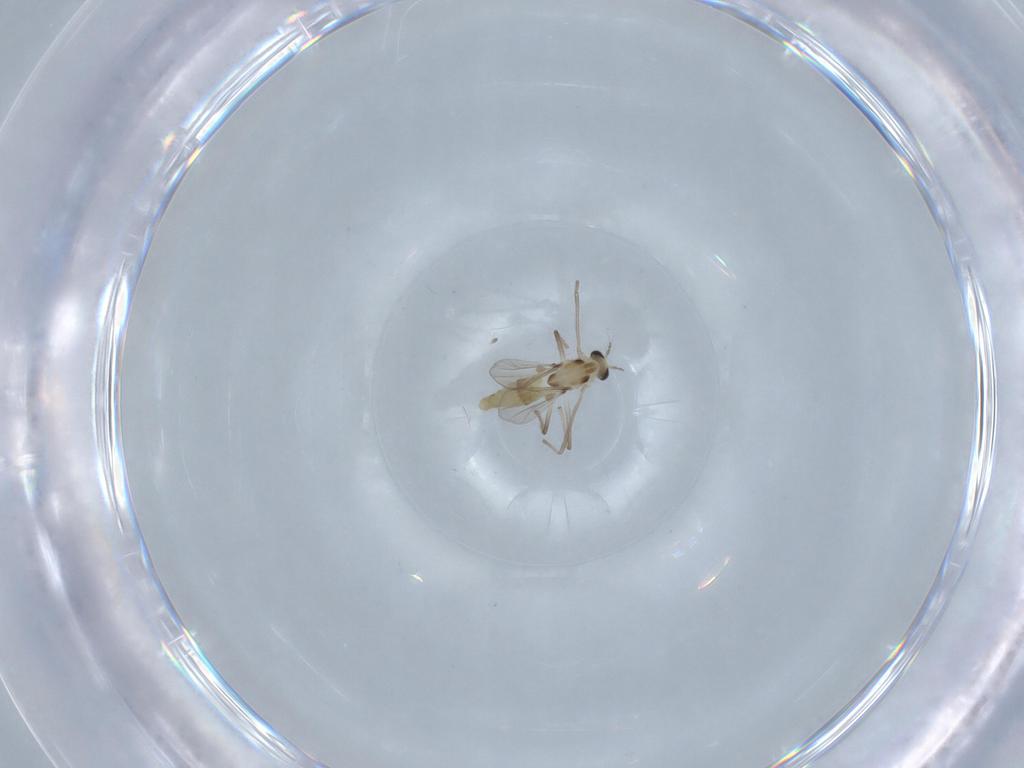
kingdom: Animalia
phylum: Arthropoda
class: Insecta
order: Diptera
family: Chironomidae
